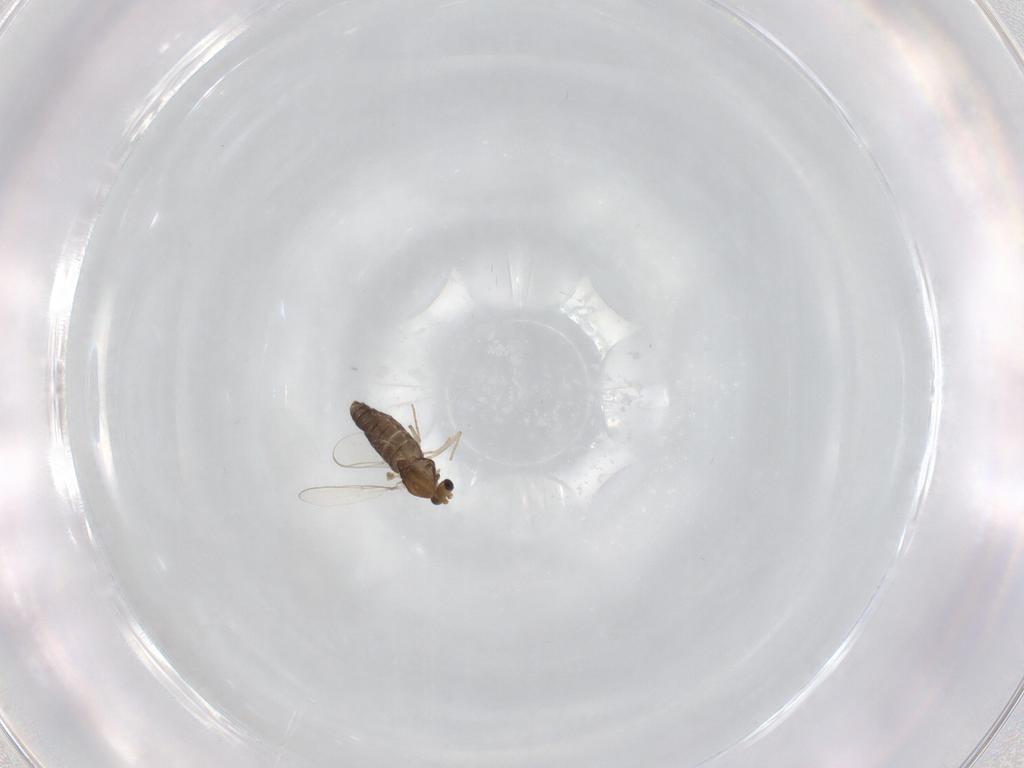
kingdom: Animalia
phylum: Arthropoda
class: Insecta
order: Diptera
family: Chironomidae
